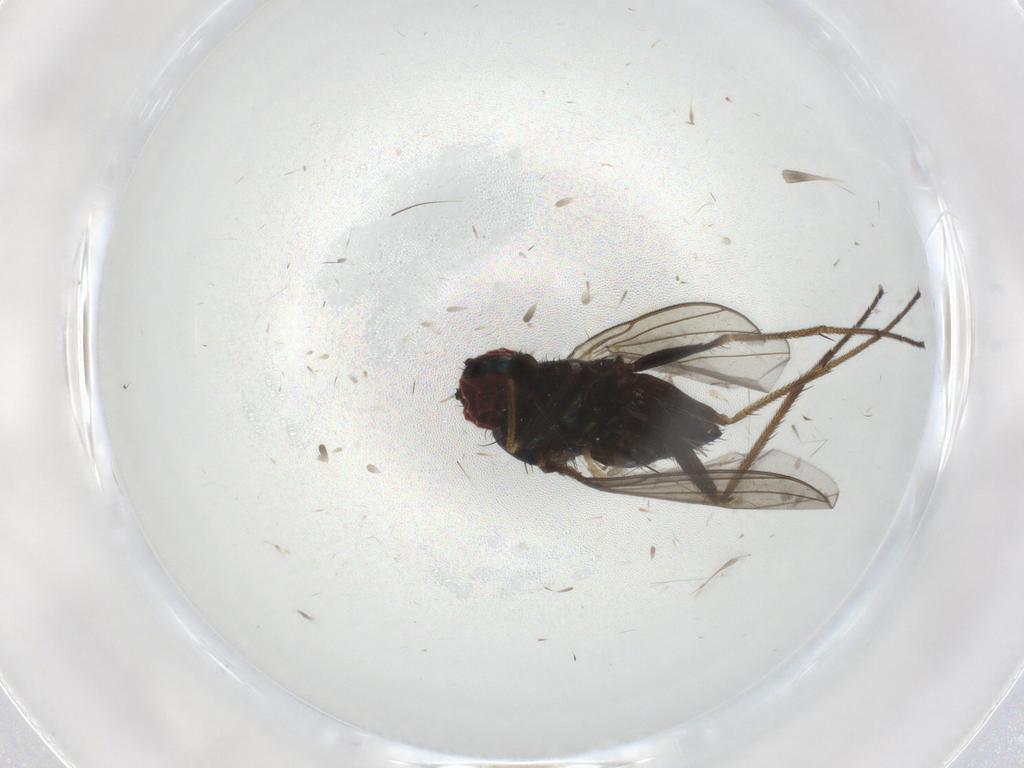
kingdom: Animalia
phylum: Arthropoda
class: Insecta
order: Diptera
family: Dolichopodidae
